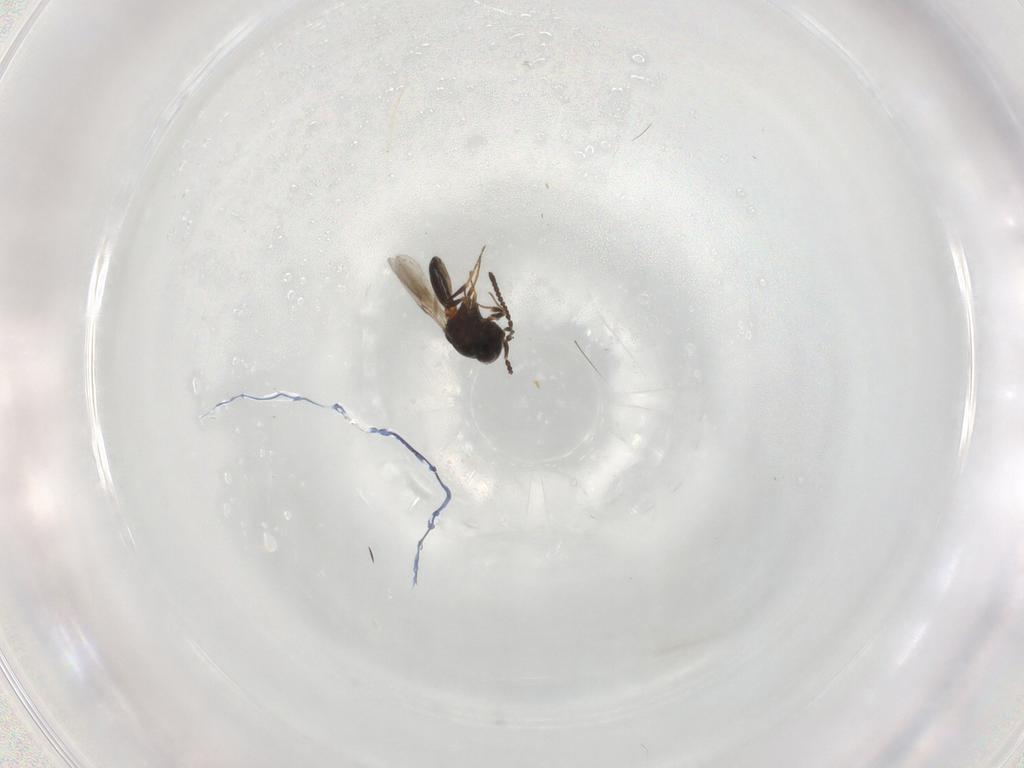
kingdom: Animalia
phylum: Arthropoda
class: Insecta
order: Hymenoptera
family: Scelionidae
